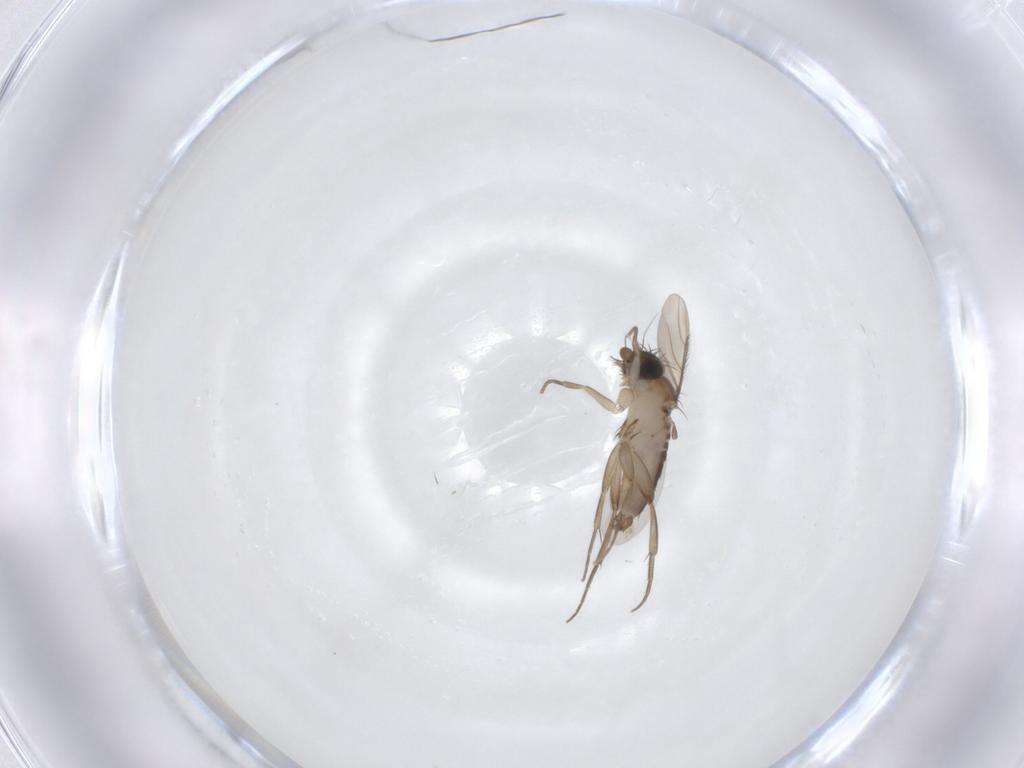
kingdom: Animalia
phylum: Arthropoda
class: Insecta
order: Diptera
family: Phoridae
